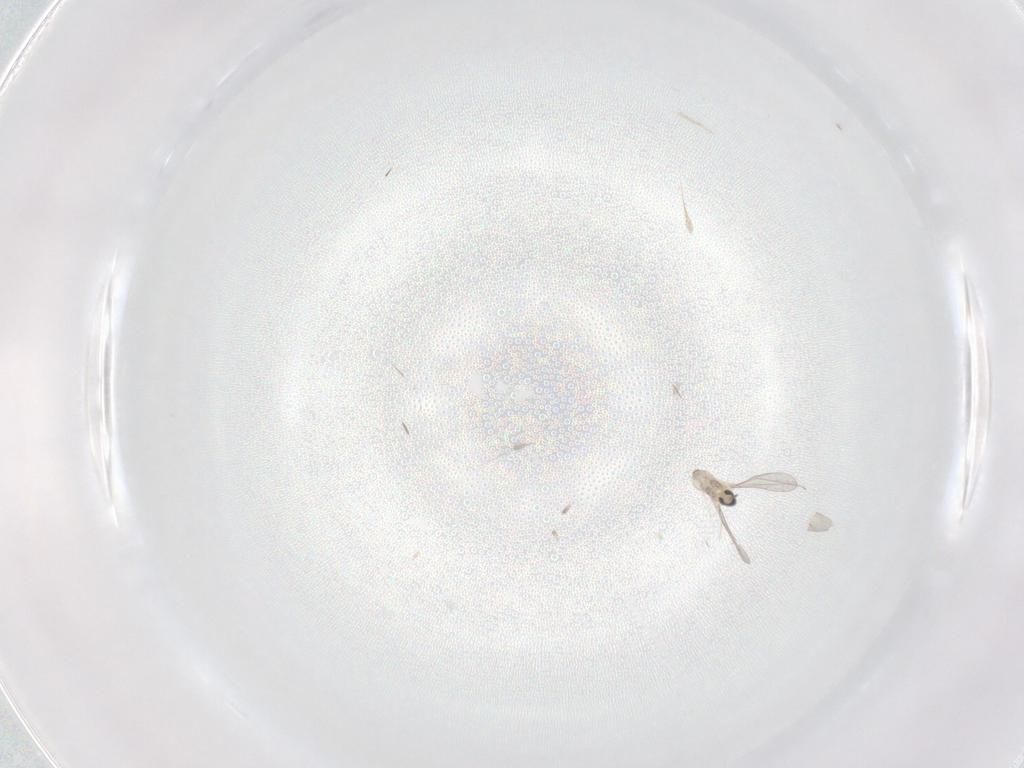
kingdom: Animalia
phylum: Arthropoda
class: Insecta
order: Diptera
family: Cecidomyiidae
